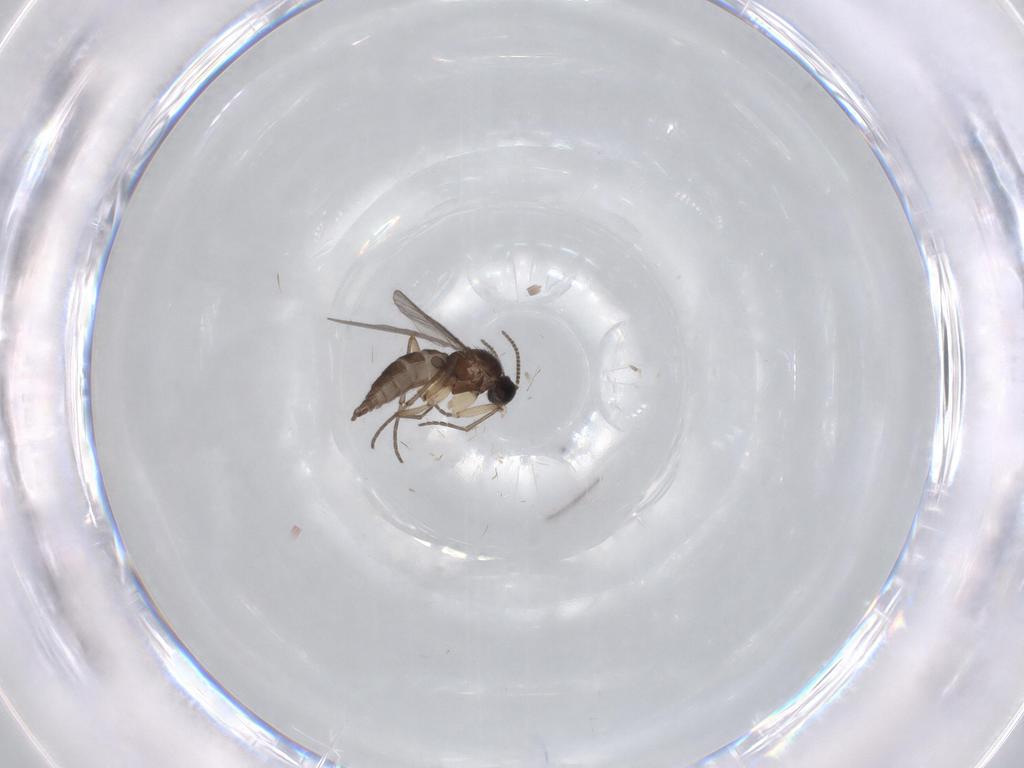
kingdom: Animalia
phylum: Arthropoda
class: Insecta
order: Diptera
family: Sciaridae
